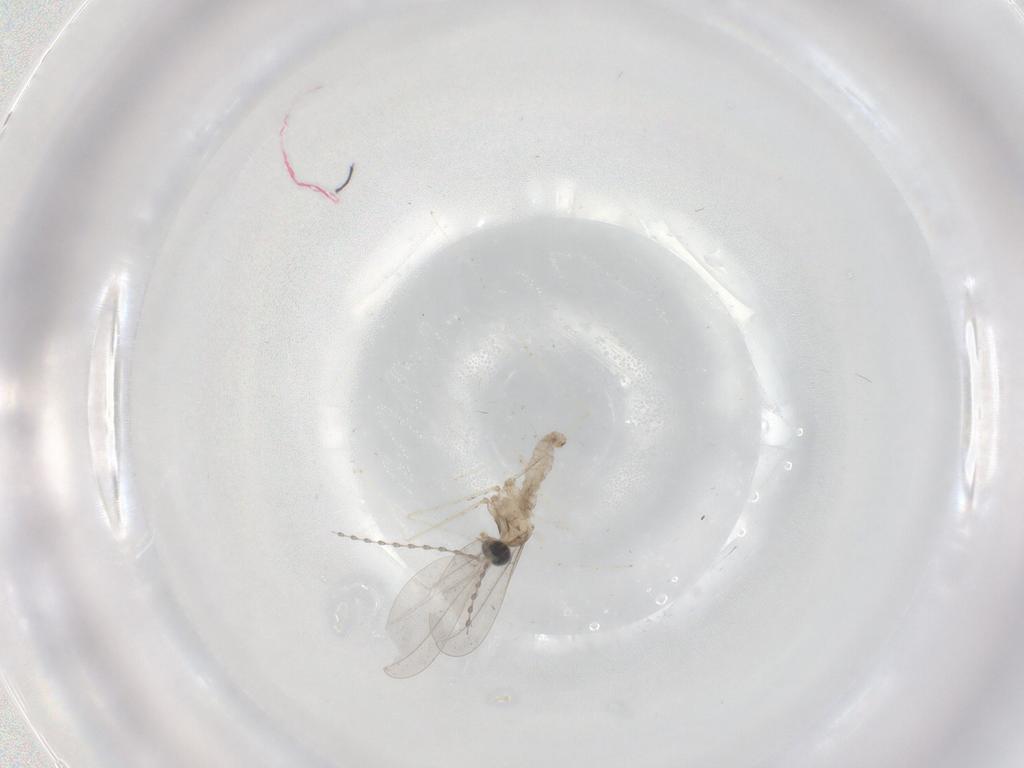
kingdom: Animalia
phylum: Arthropoda
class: Insecta
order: Diptera
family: Cecidomyiidae
